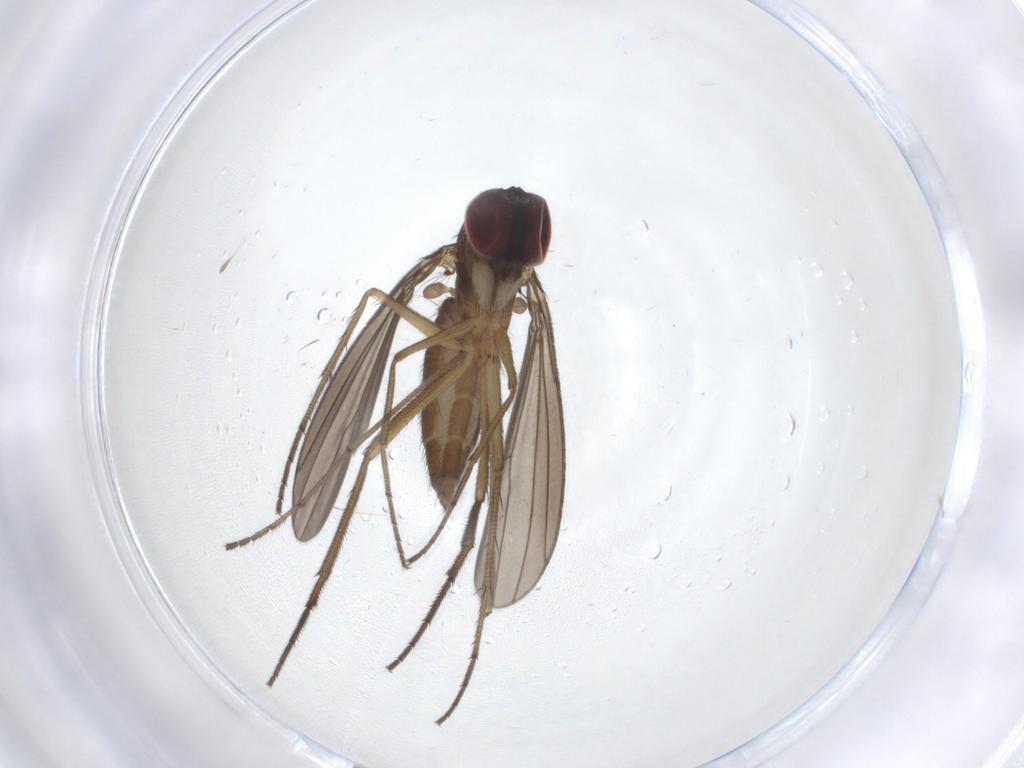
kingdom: Animalia
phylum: Arthropoda
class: Insecta
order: Diptera
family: Dolichopodidae
